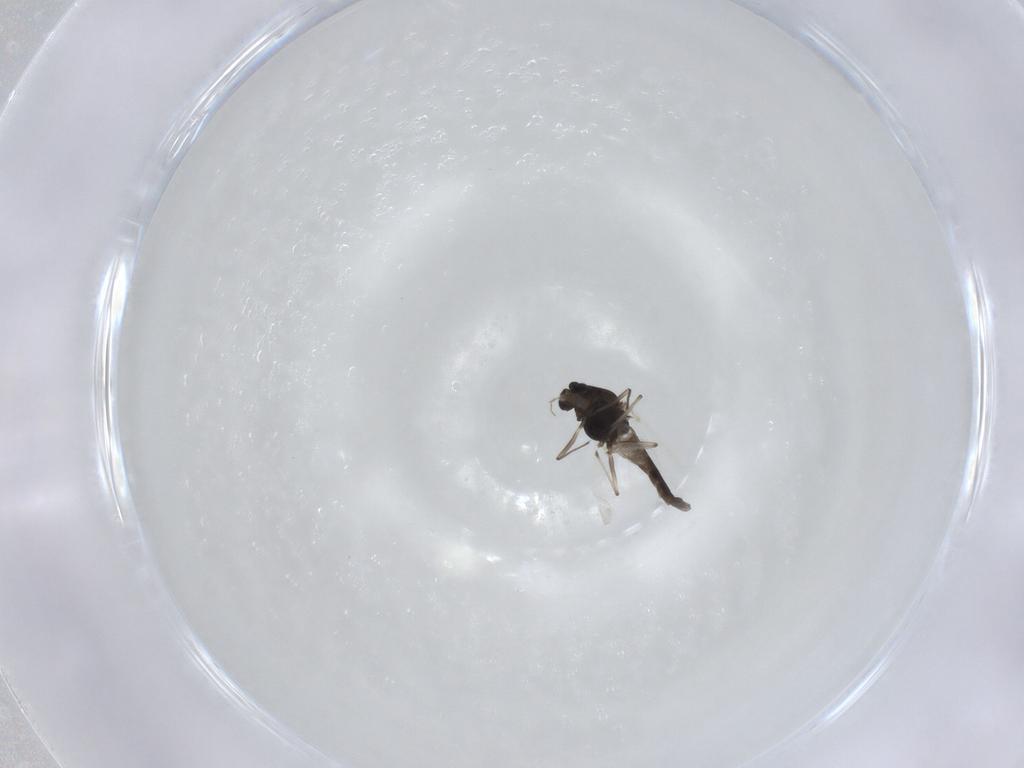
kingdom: Animalia
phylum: Arthropoda
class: Insecta
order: Diptera
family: Chironomidae
